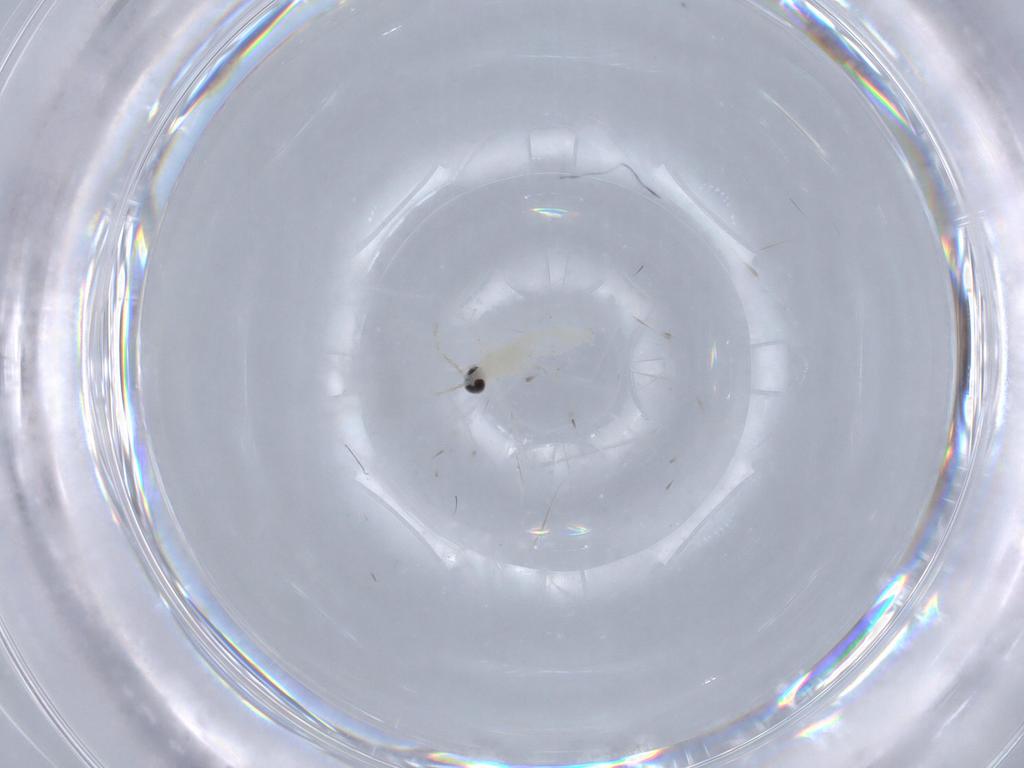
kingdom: Animalia
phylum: Arthropoda
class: Insecta
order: Diptera
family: Cecidomyiidae
